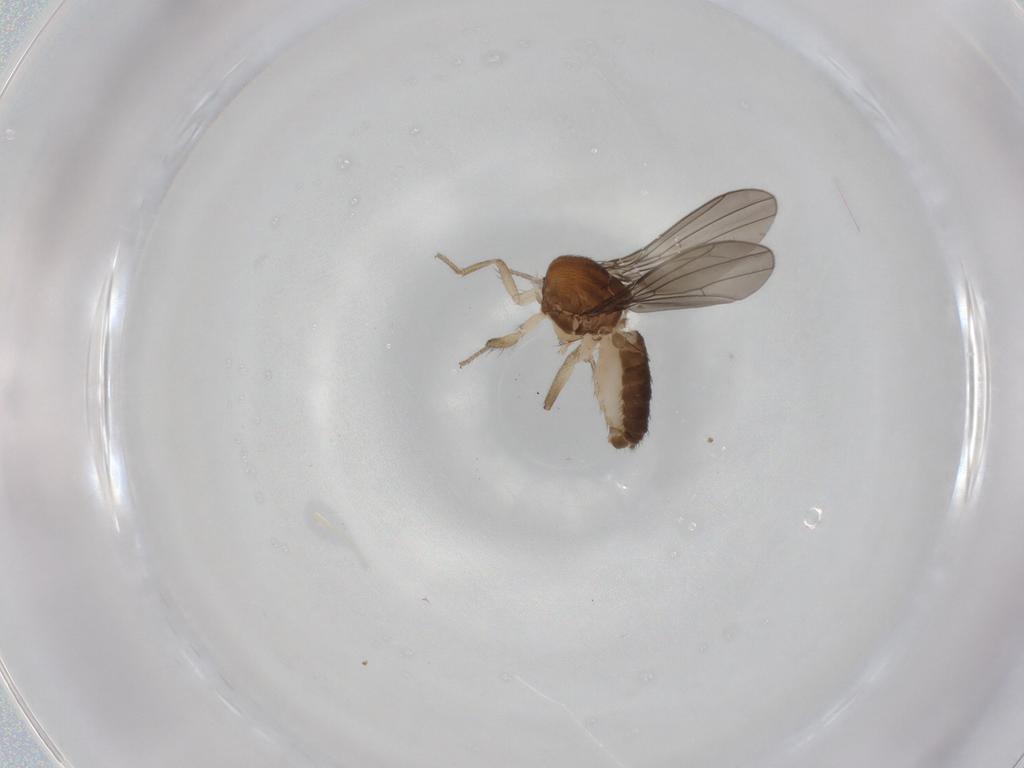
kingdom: Animalia
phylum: Arthropoda
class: Insecta
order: Diptera
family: Drosophilidae
